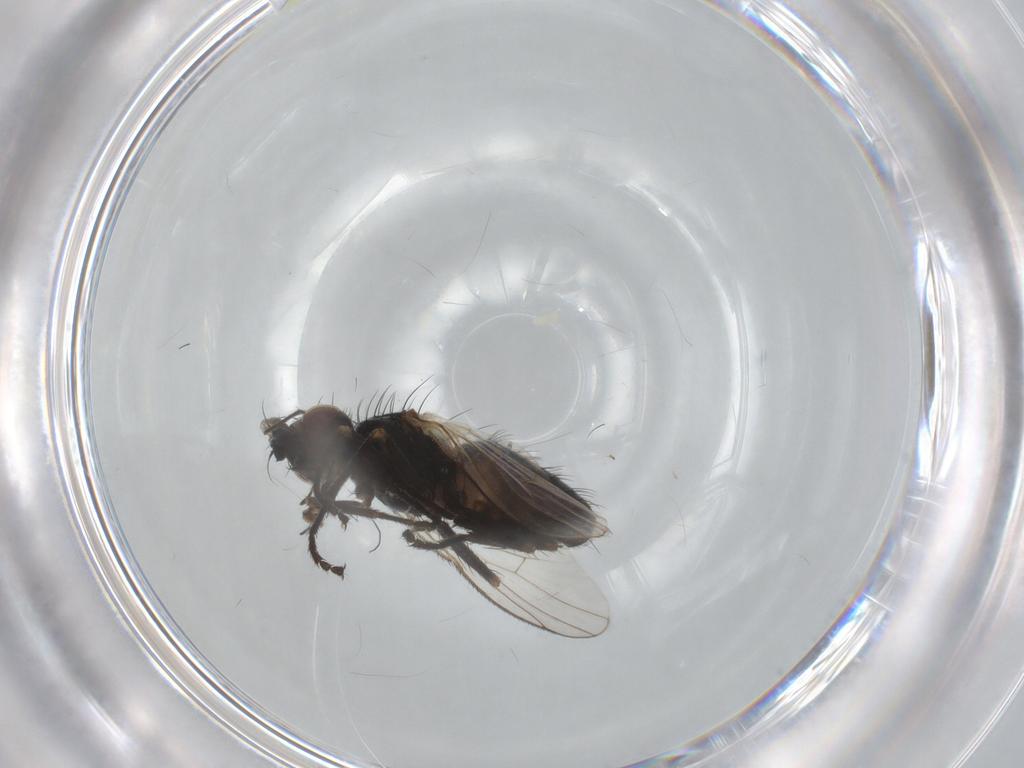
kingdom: Animalia
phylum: Arthropoda
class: Insecta
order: Diptera
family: Muscidae
